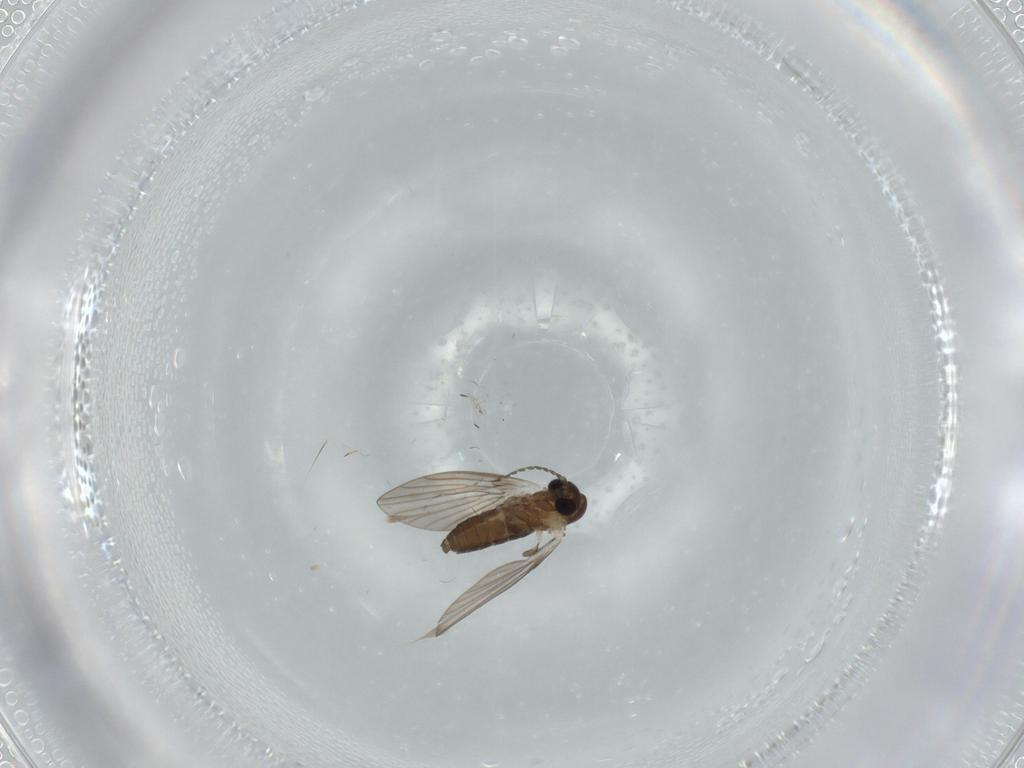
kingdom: Animalia
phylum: Arthropoda
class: Insecta
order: Diptera
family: Psychodidae
